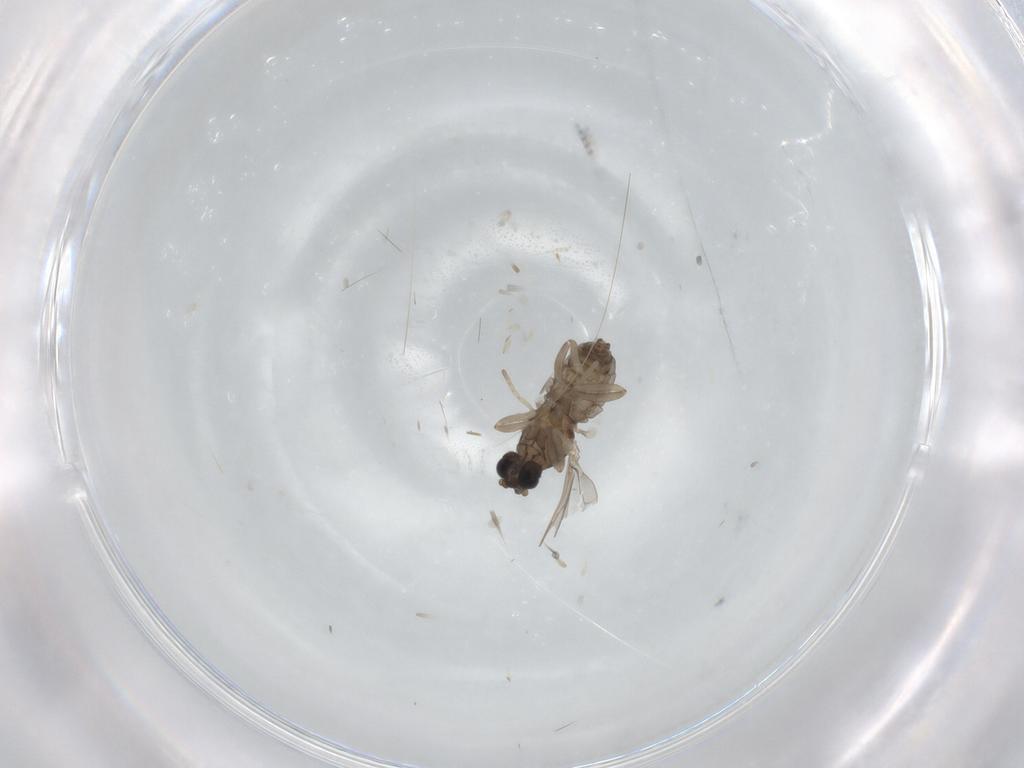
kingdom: Animalia
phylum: Arthropoda
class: Insecta
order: Diptera
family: Cecidomyiidae
